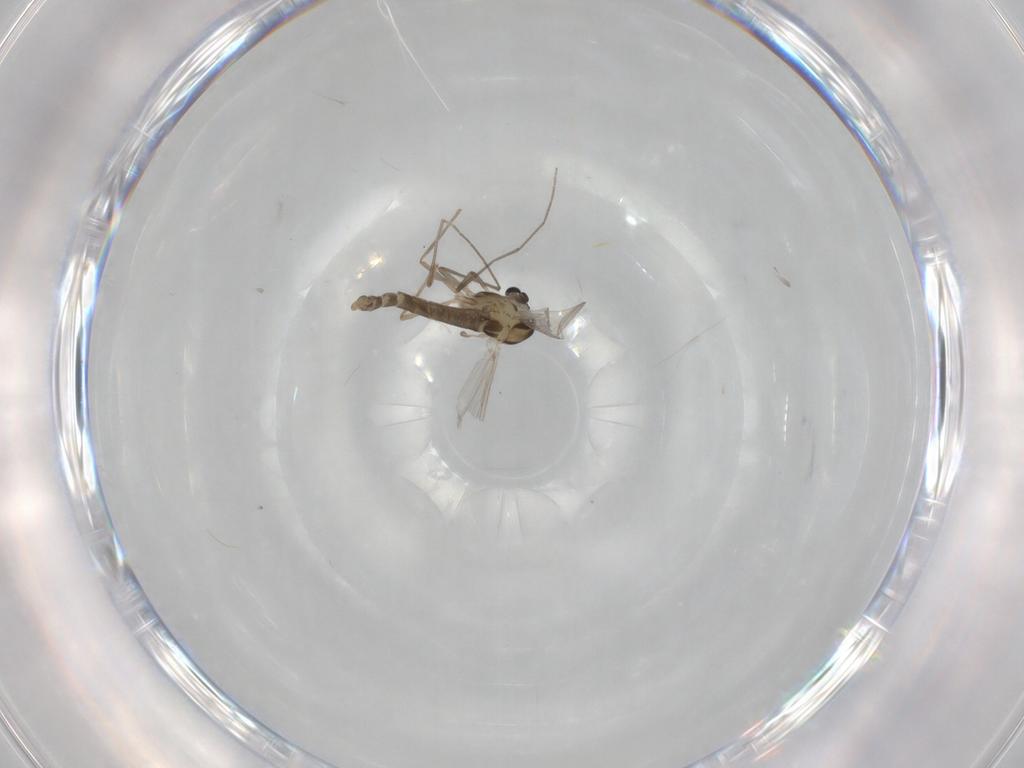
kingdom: Animalia
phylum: Arthropoda
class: Insecta
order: Diptera
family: Chironomidae
